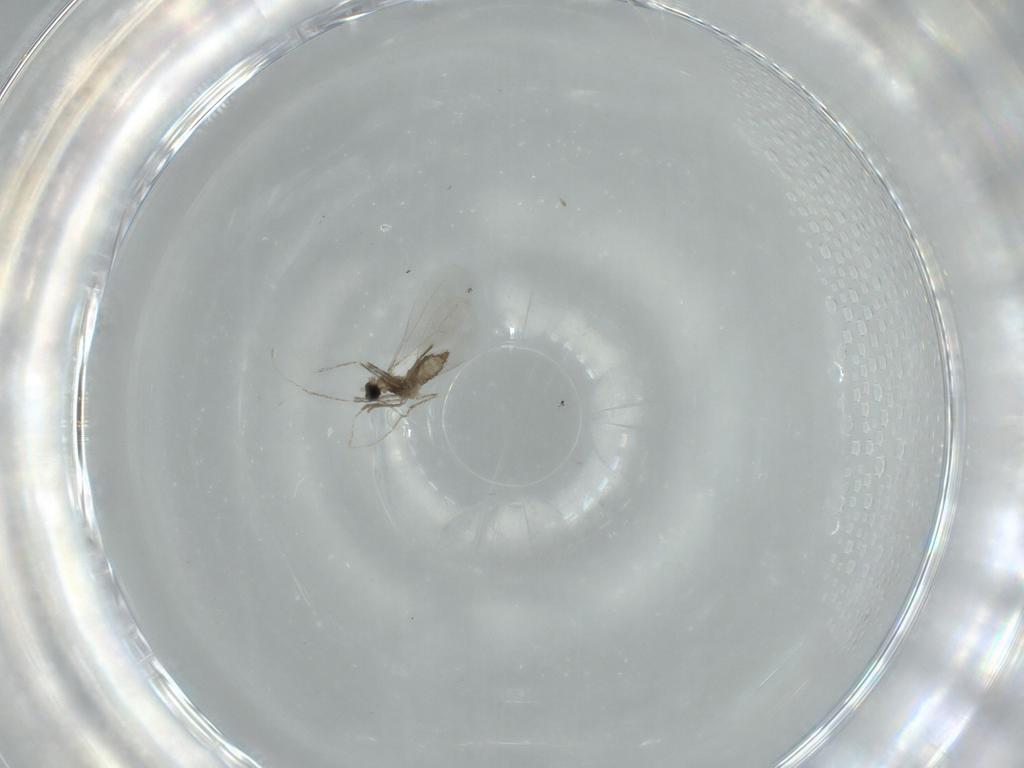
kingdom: Animalia
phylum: Arthropoda
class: Insecta
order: Diptera
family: Cecidomyiidae
